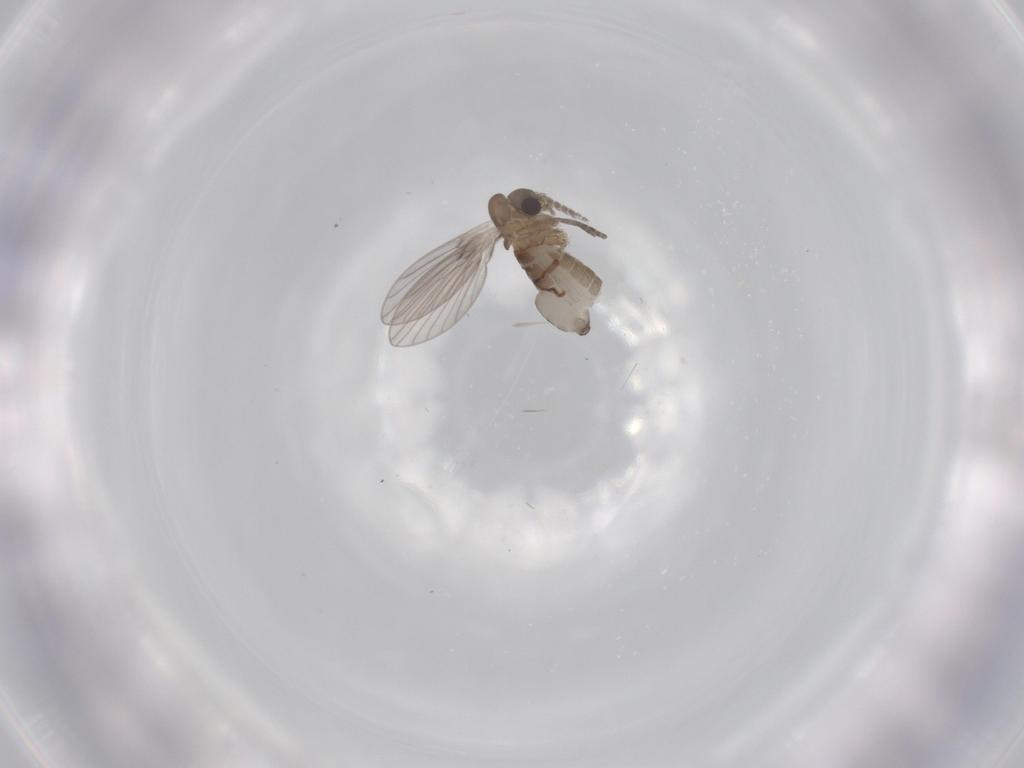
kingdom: Animalia
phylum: Arthropoda
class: Insecta
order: Diptera
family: Psychodidae
